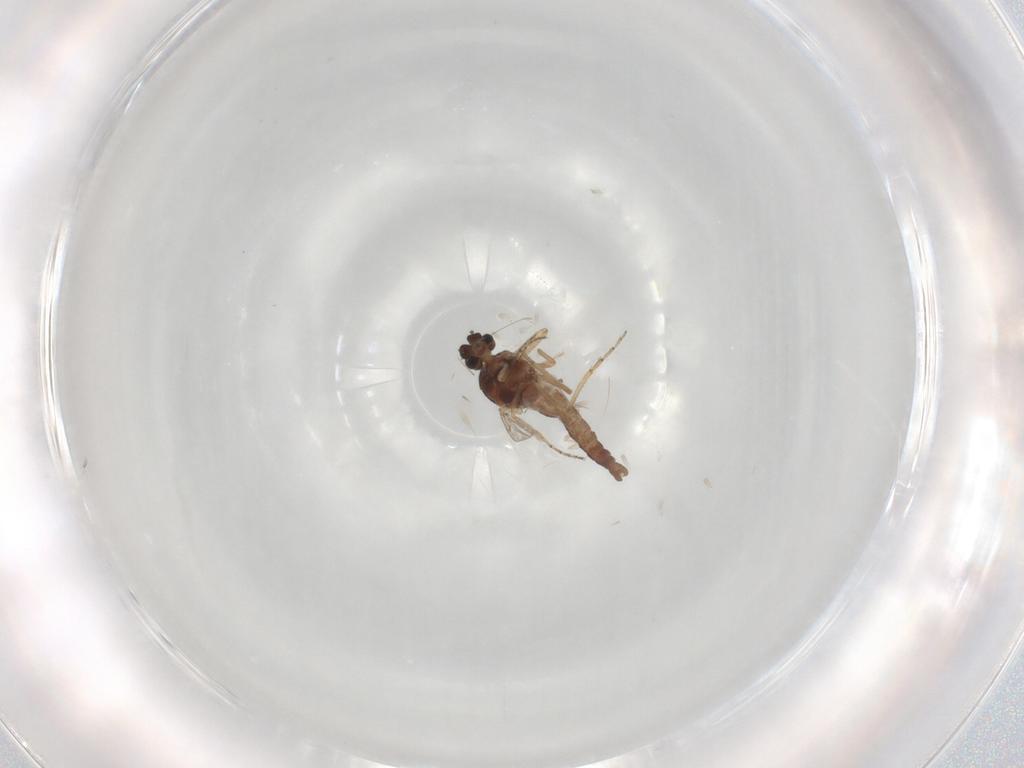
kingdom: Animalia
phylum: Arthropoda
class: Insecta
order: Diptera
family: Ceratopogonidae
